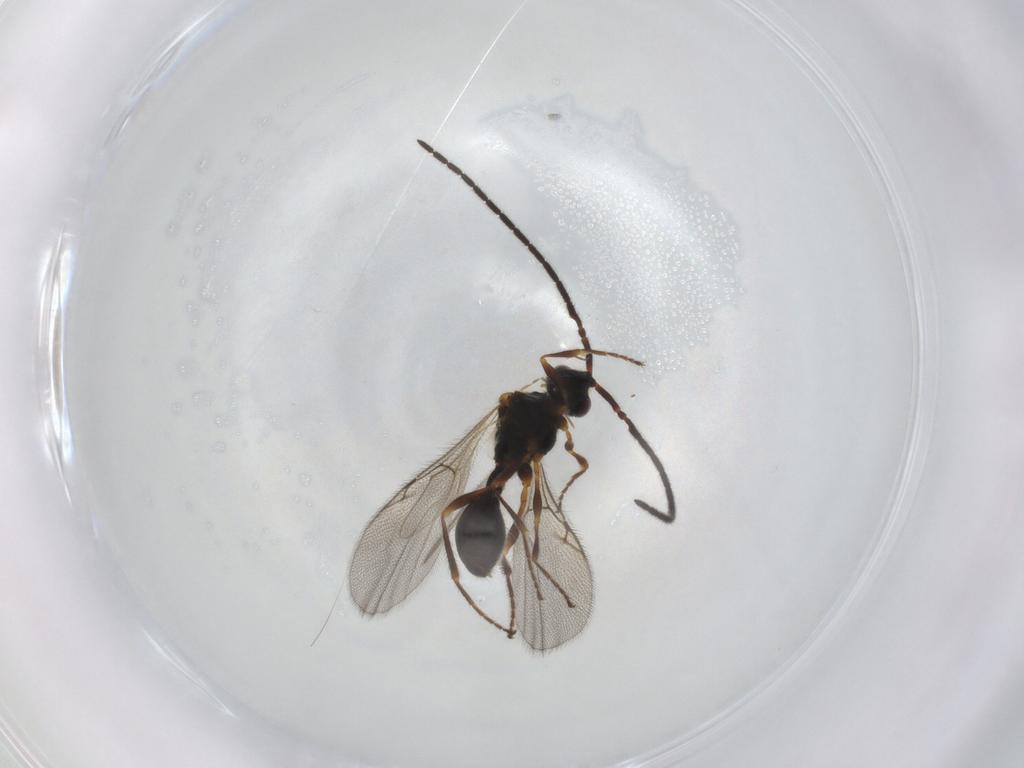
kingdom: Animalia
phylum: Arthropoda
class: Insecta
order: Hymenoptera
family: Diapriidae
